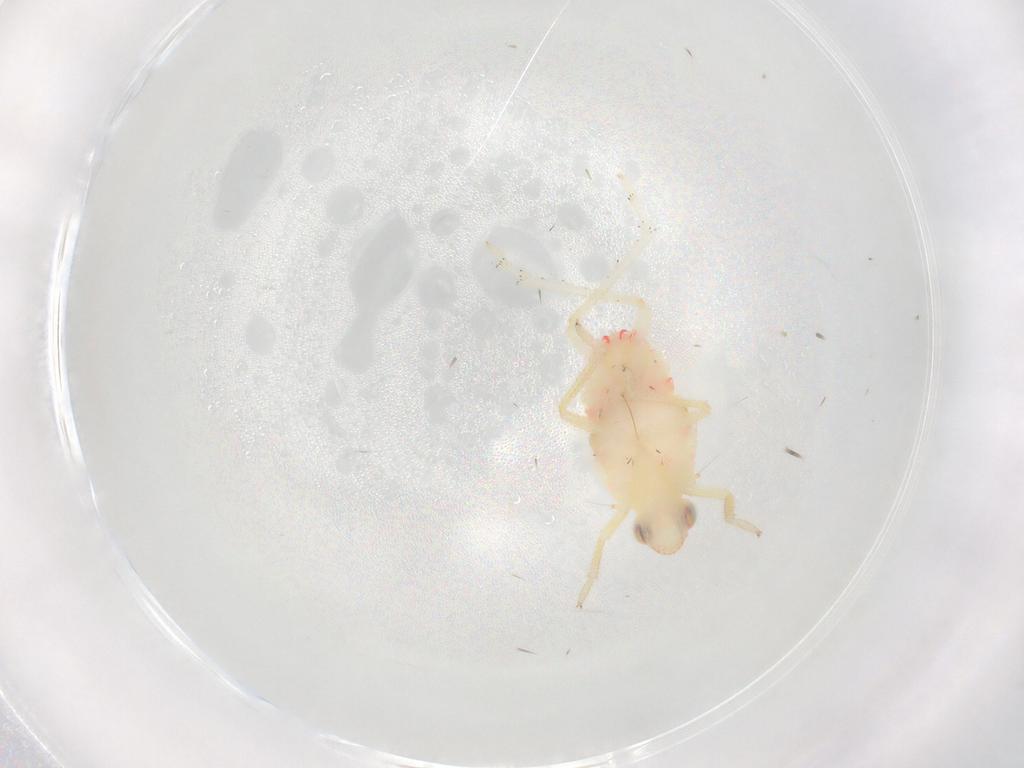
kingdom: Animalia
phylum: Arthropoda
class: Insecta
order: Hemiptera
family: Tropiduchidae
